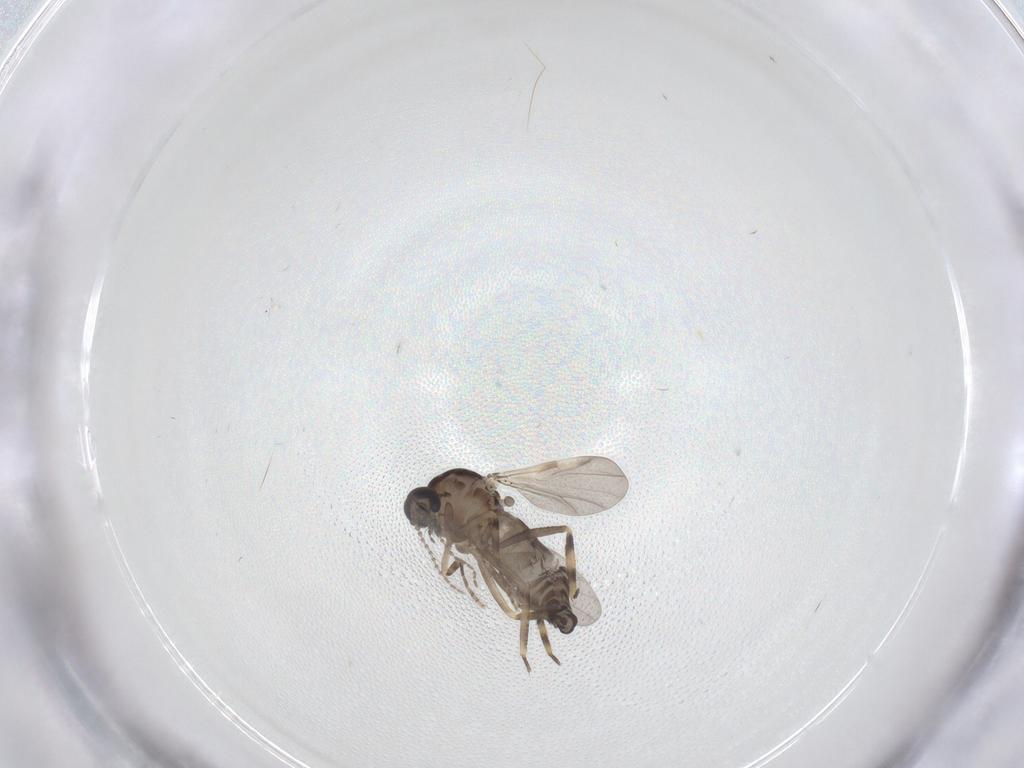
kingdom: Animalia
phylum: Arthropoda
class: Insecta
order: Diptera
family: Ceratopogonidae
